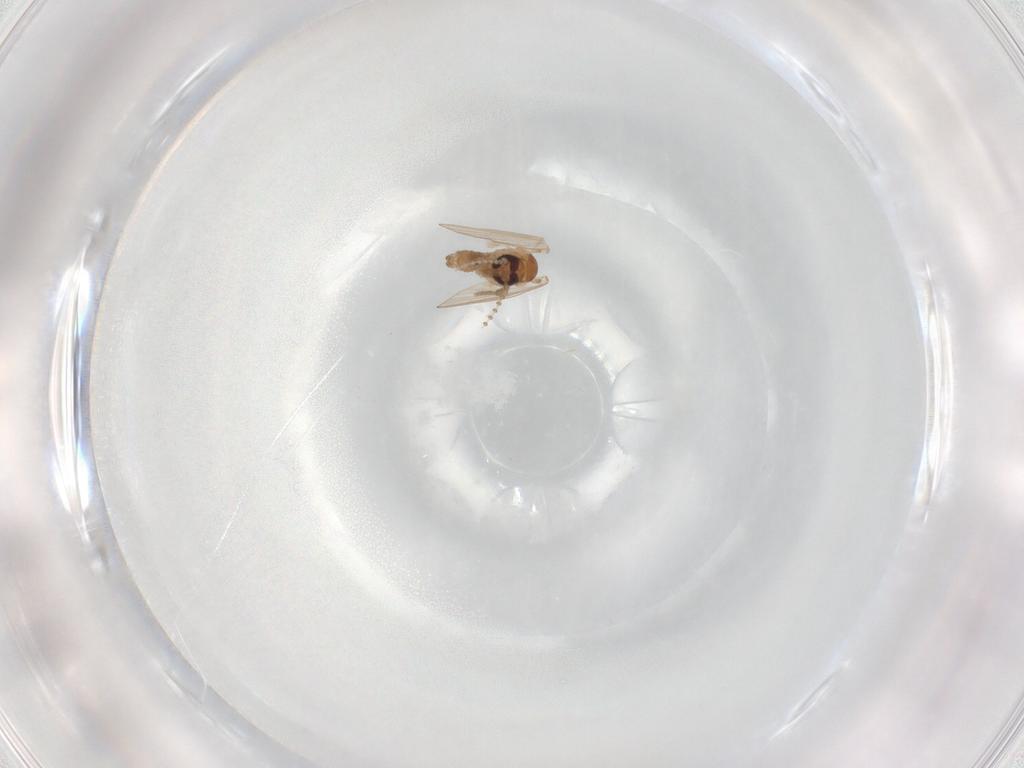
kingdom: Animalia
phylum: Arthropoda
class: Insecta
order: Diptera
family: Psychodidae
